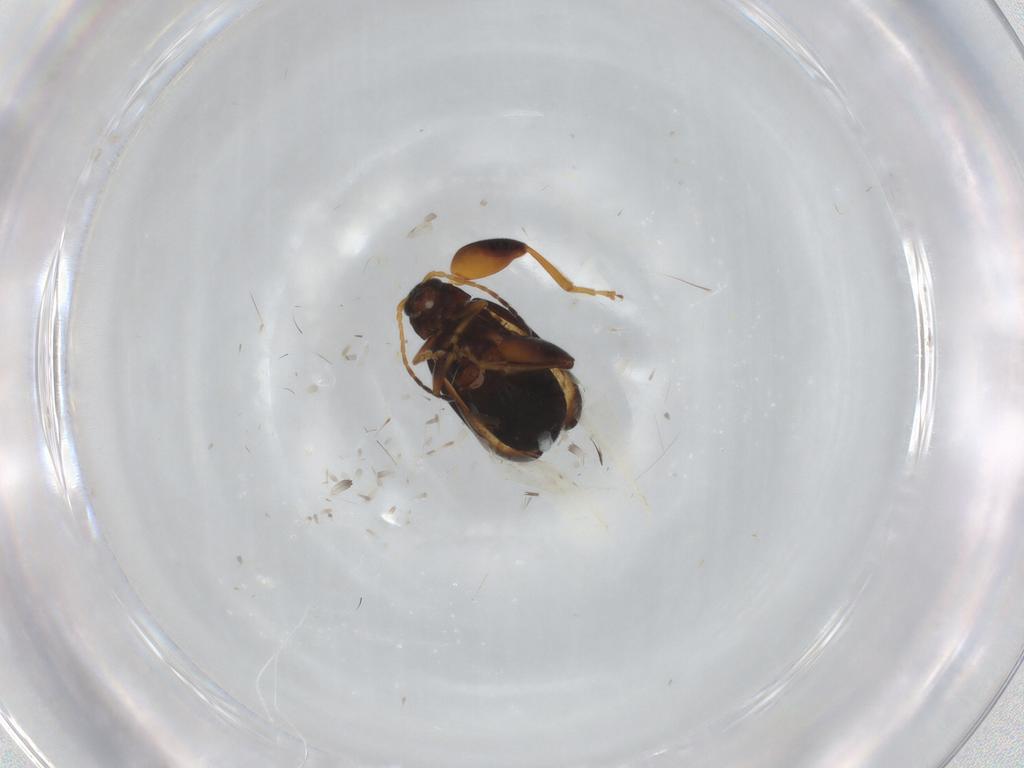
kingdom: Animalia
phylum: Arthropoda
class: Insecta
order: Coleoptera
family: Chrysomelidae
